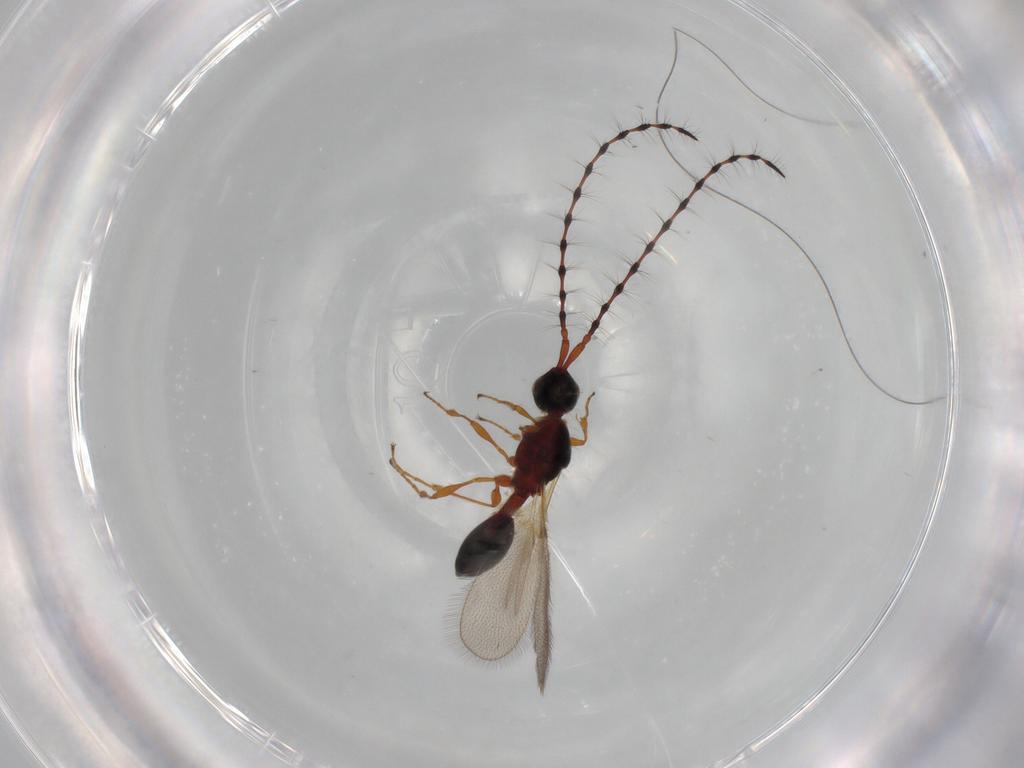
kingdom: Animalia
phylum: Arthropoda
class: Insecta
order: Hymenoptera
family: Diapriidae
